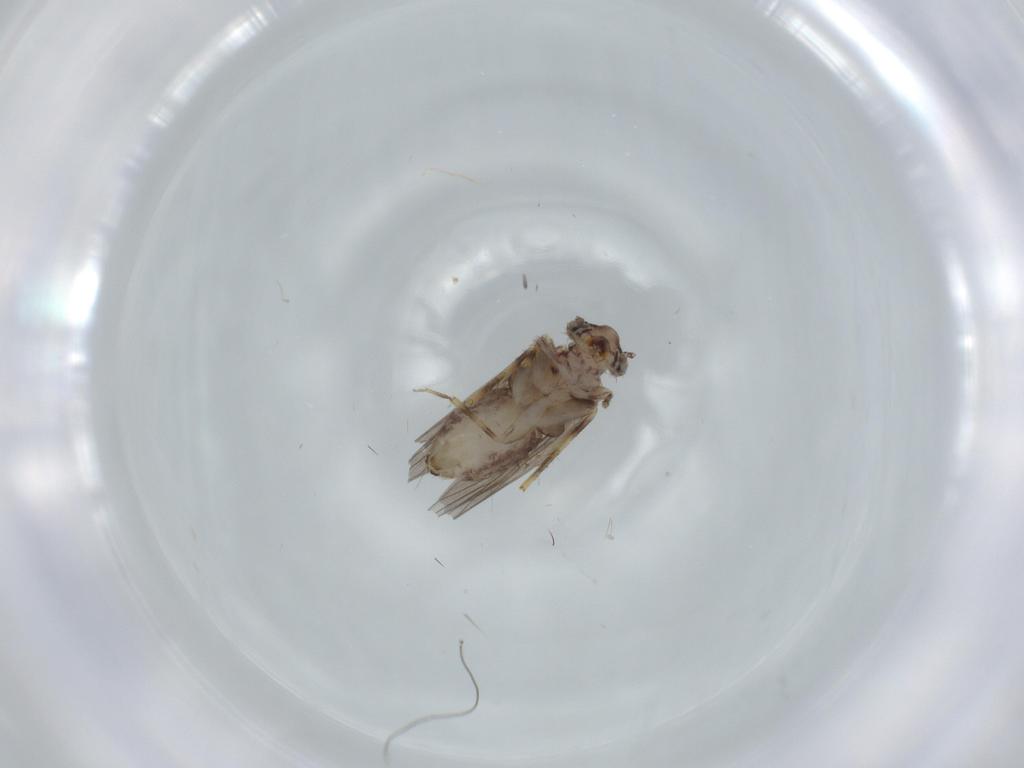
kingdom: Animalia
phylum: Arthropoda
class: Insecta
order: Psocodea
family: Lepidopsocidae
